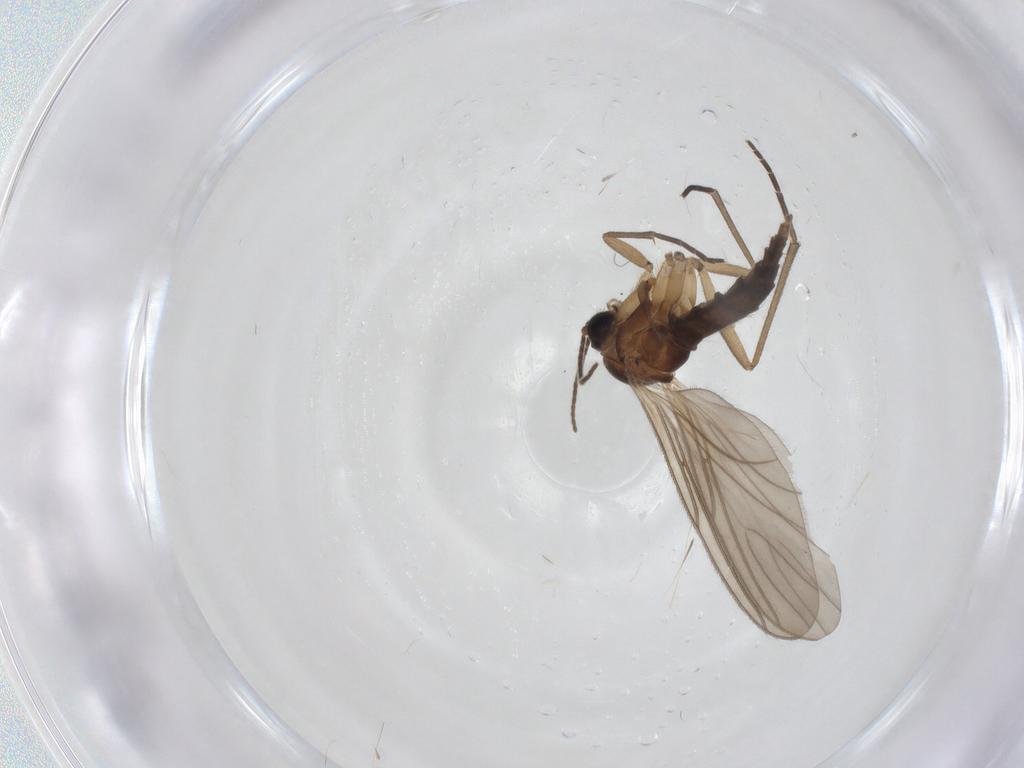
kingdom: Animalia
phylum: Arthropoda
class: Insecta
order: Diptera
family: Sciaridae
